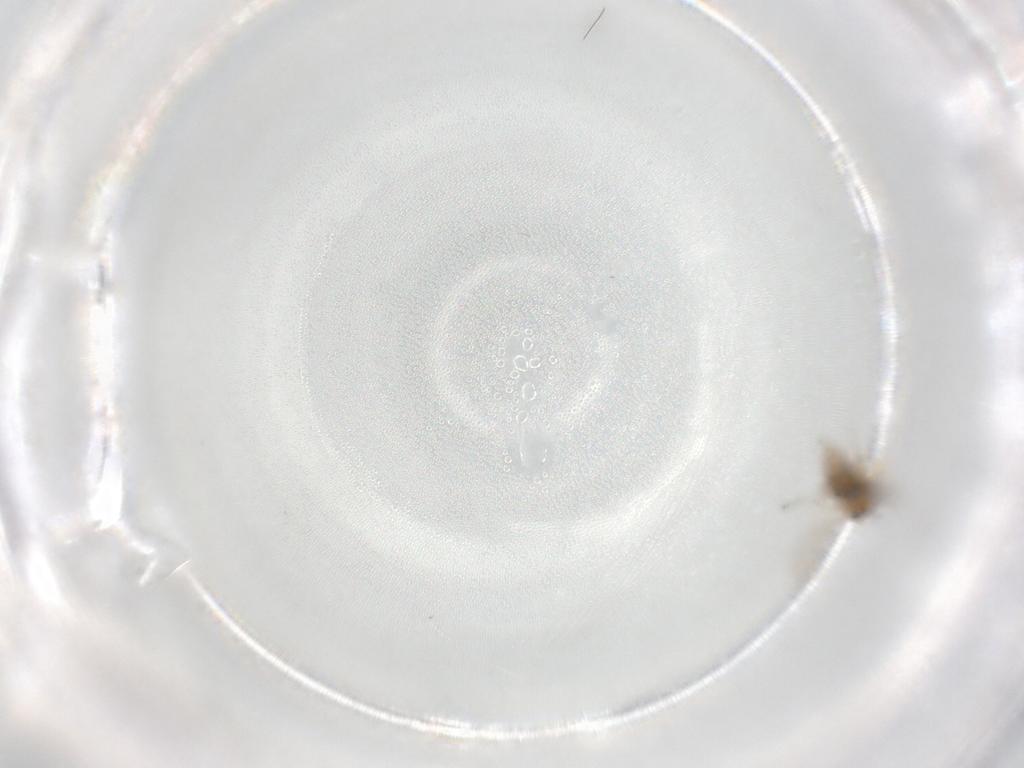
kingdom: Animalia
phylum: Arthropoda
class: Insecta
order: Diptera
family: Ceratopogonidae
